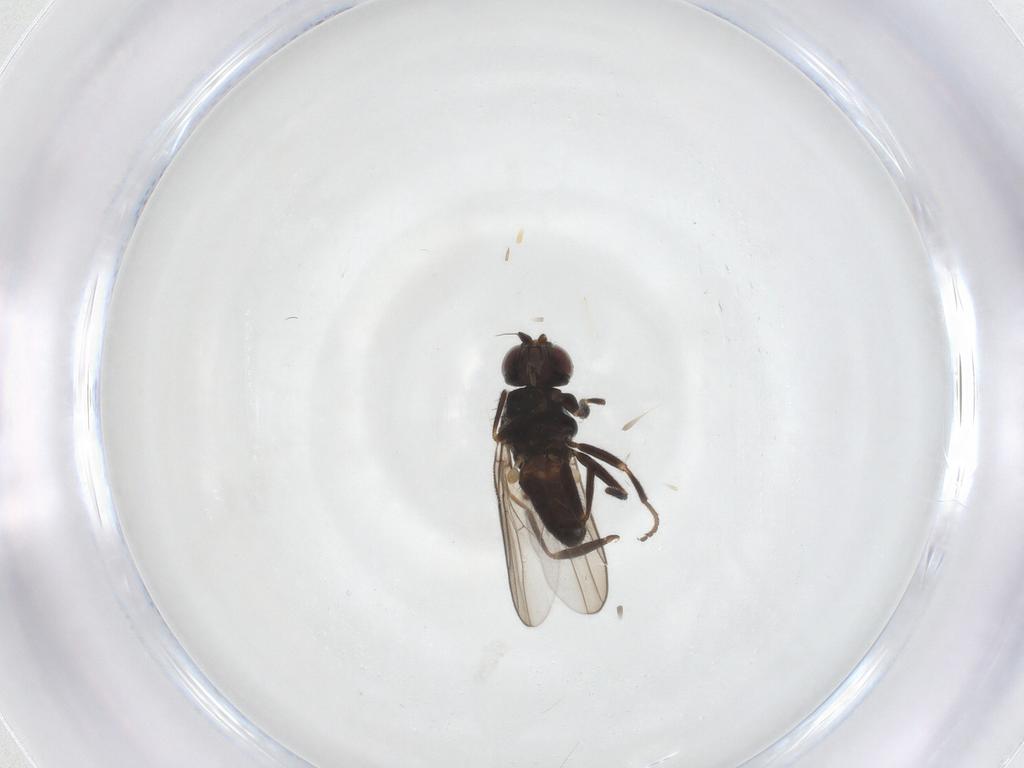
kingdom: Animalia
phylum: Arthropoda
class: Insecta
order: Diptera
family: Chloropidae
